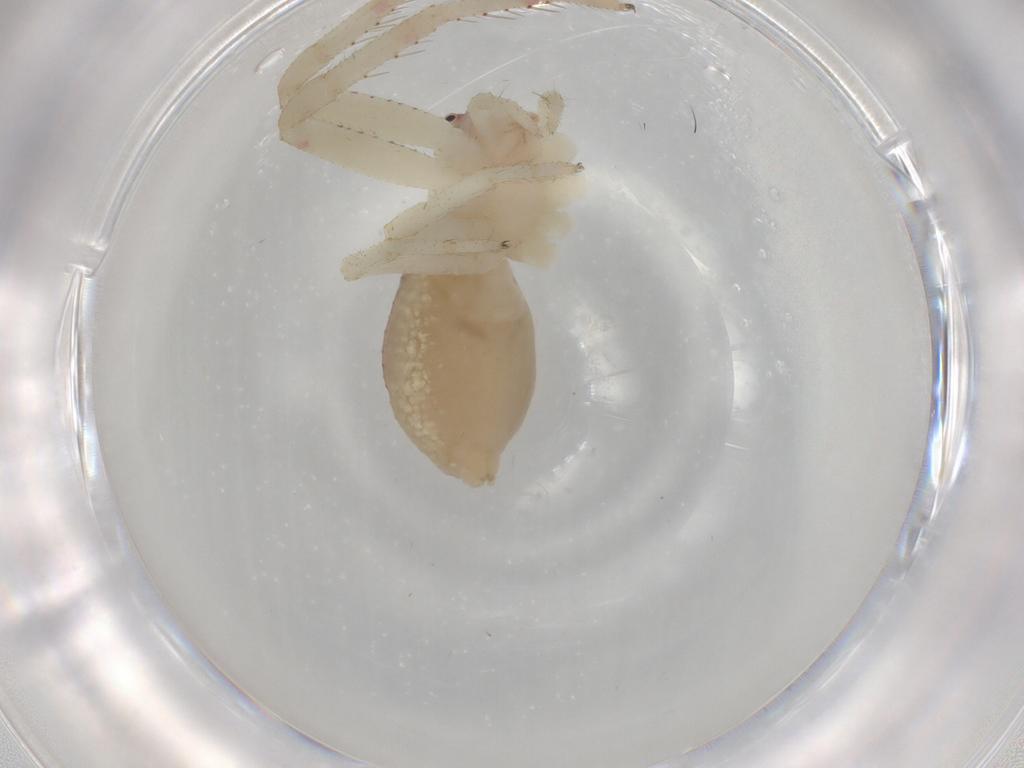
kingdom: Animalia
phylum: Arthropoda
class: Arachnida
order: Araneae
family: Thomisidae
